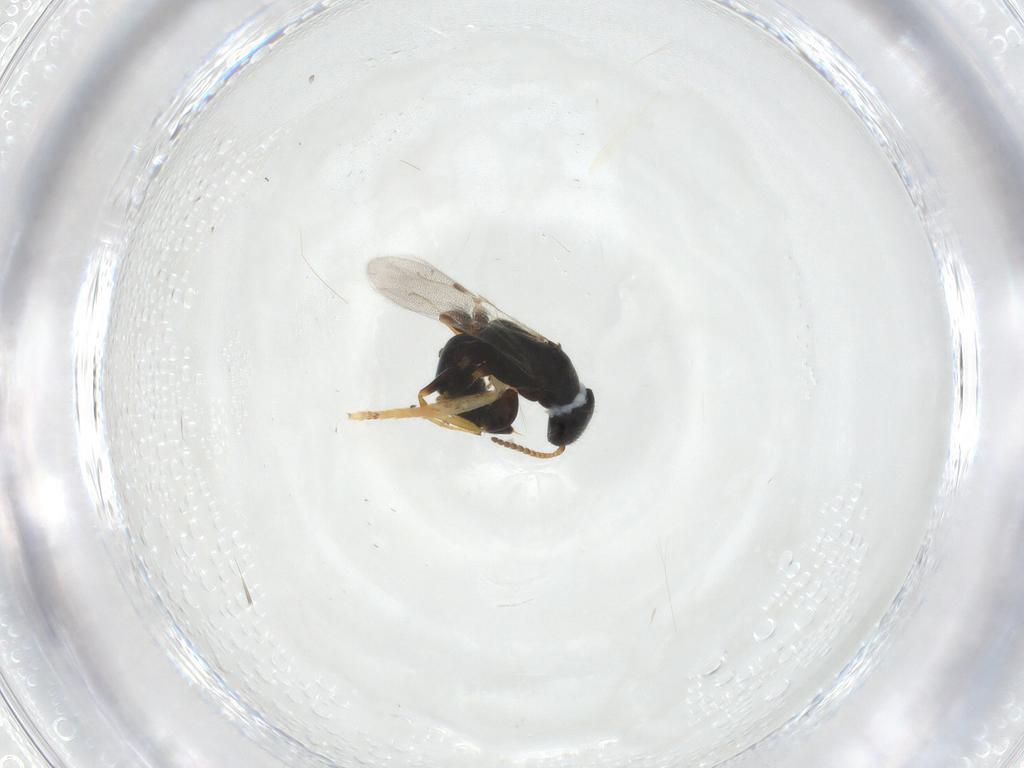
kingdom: Animalia
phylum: Arthropoda
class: Insecta
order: Hymenoptera
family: Bethylidae
